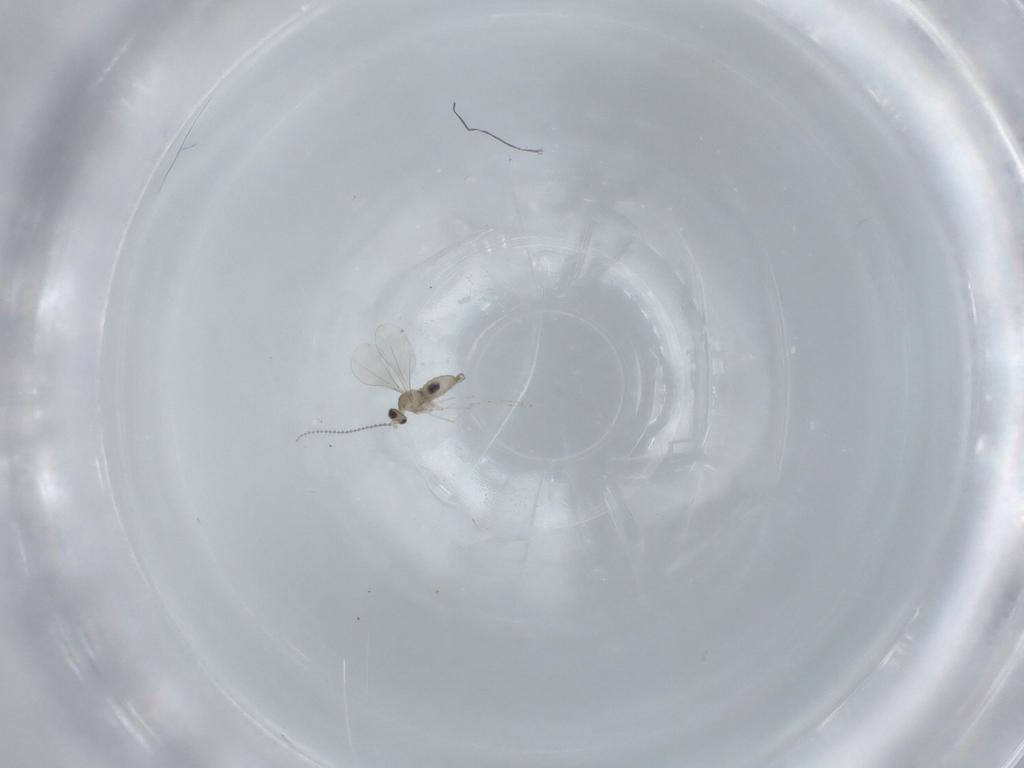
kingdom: Animalia
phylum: Arthropoda
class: Insecta
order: Diptera
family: Cecidomyiidae
